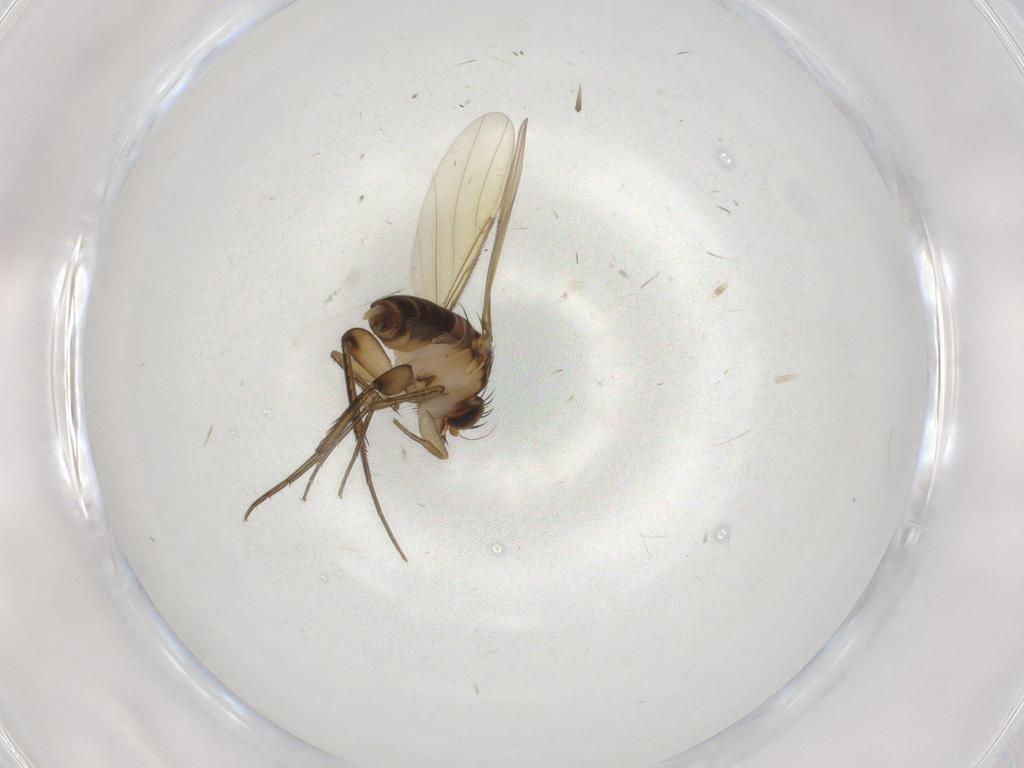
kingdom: Animalia
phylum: Arthropoda
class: Insecta
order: Diptera
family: Phoridae
